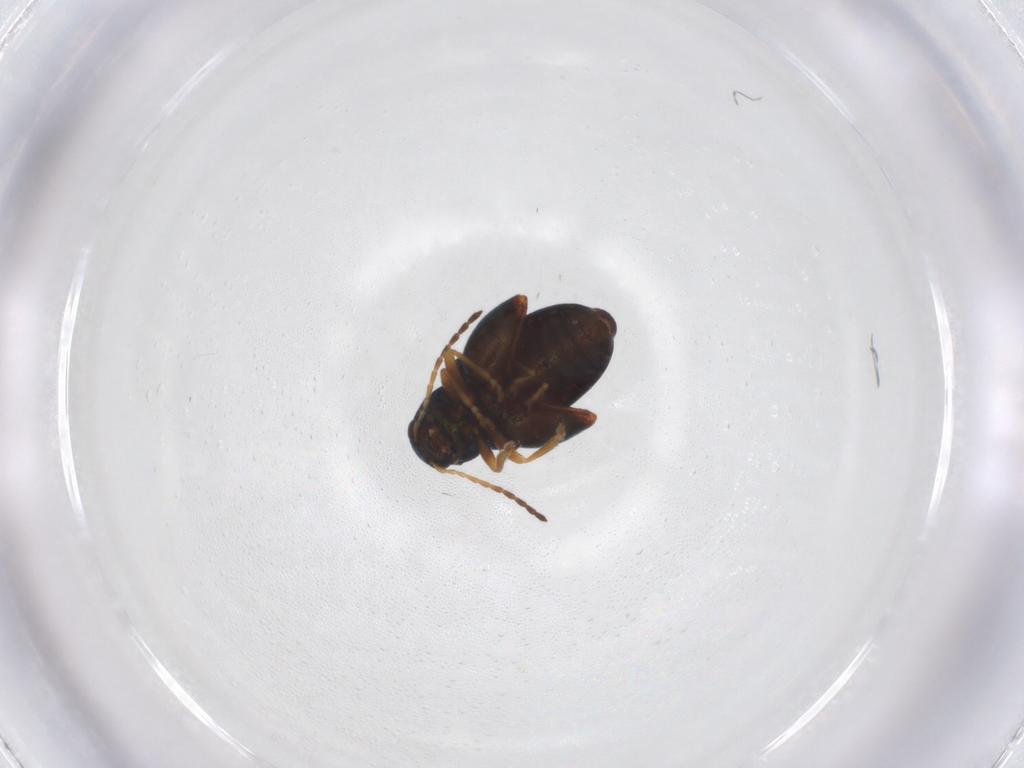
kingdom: Animalia
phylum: Arthropoda
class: Insecta
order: Coleoptera
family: Chrysomelidae
